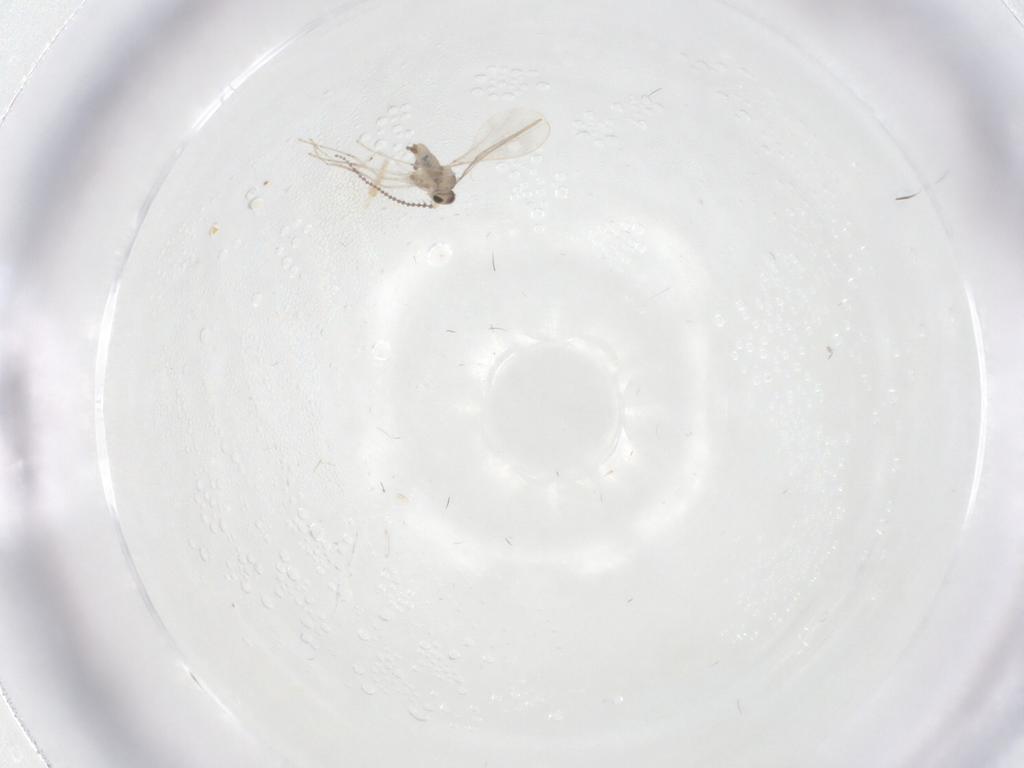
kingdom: Animalia
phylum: Arthropoda
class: Insecta
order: Diptera
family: Cecidomyiidae
